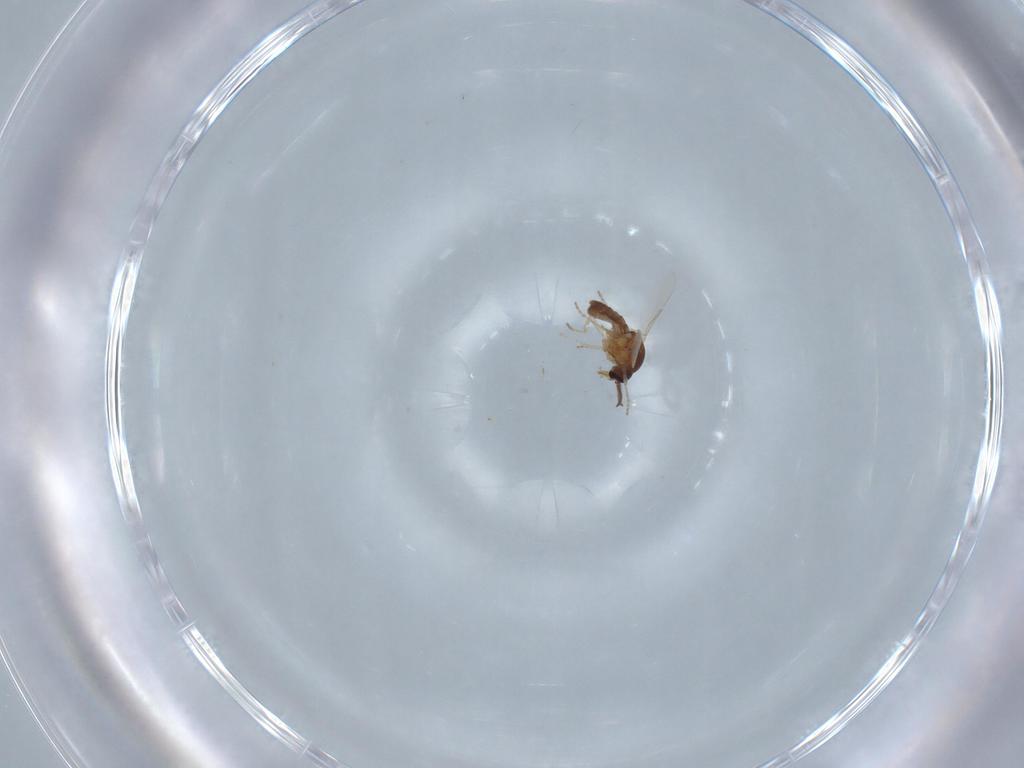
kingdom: Animalia
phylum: Arthropoda
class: Insecta
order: Diptera
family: Ceratopogonidae
